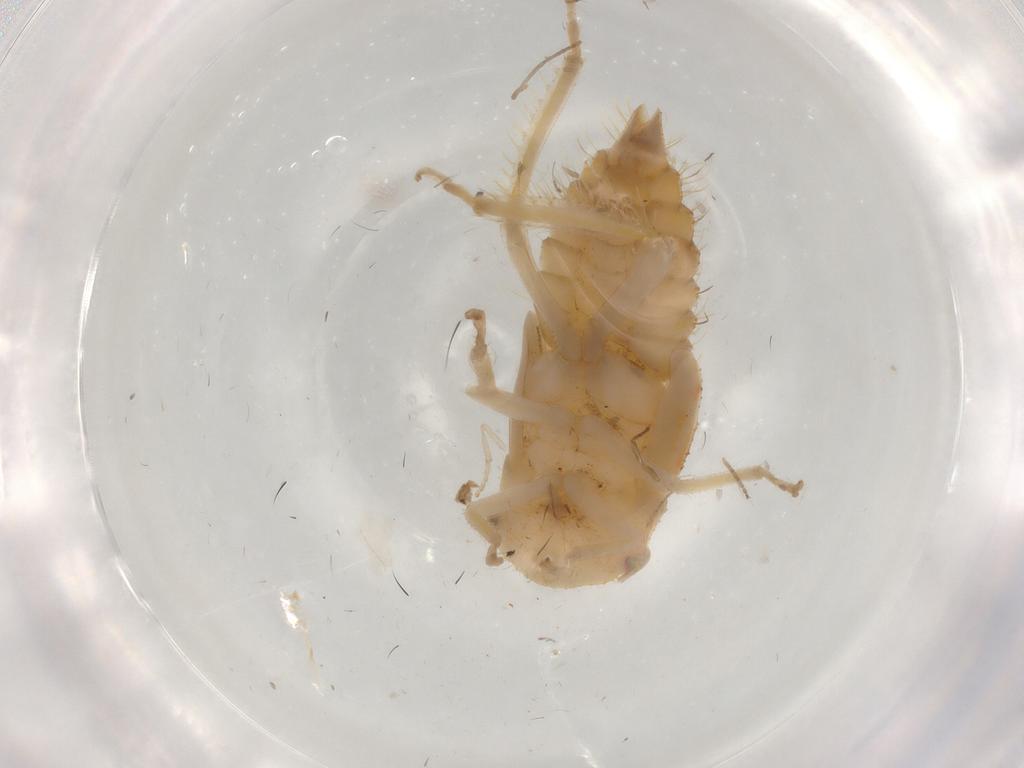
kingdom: Animalia
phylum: Arthropoda
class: Insecta
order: Hemiptera
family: Cicadellidae
